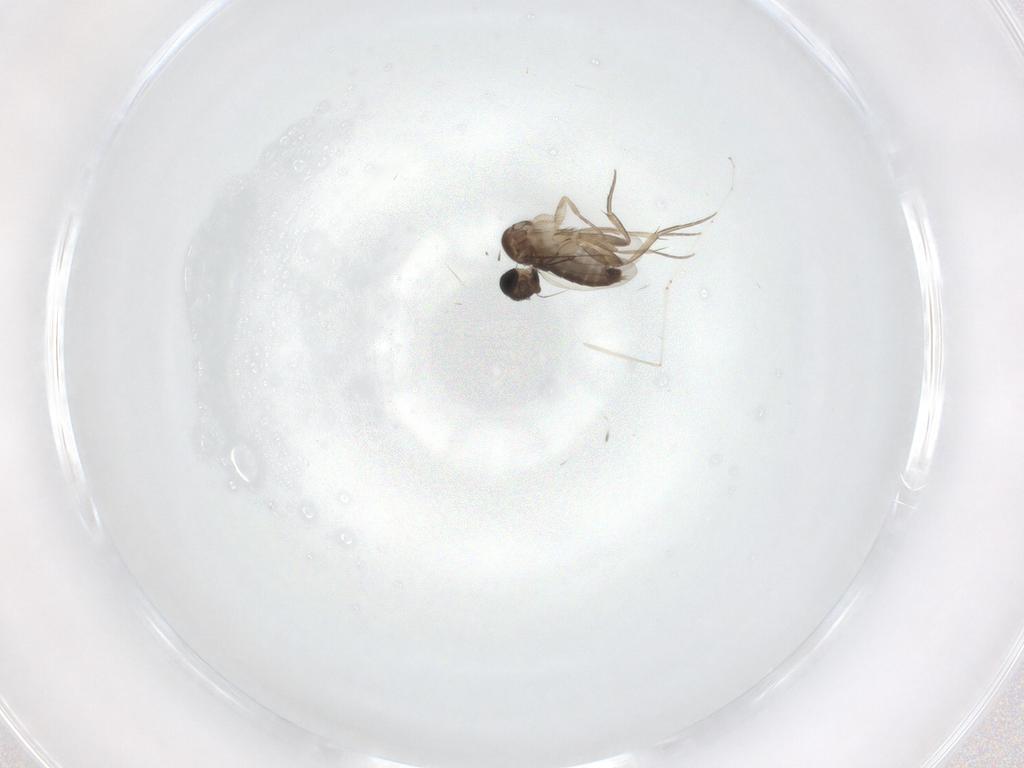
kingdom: Animalia
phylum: Arthropoda
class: Insecta
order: Diptera
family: Phoridae
